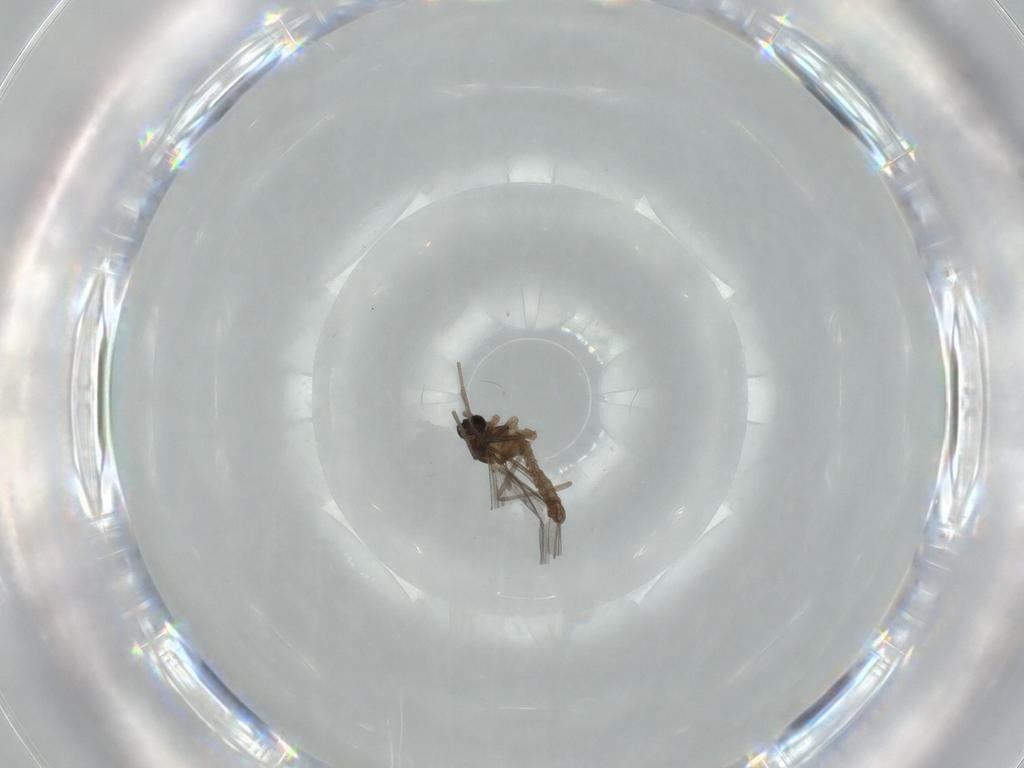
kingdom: Animalia
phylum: Arthropoda
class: Insecta
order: Diptera
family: Cecidomyiidae
